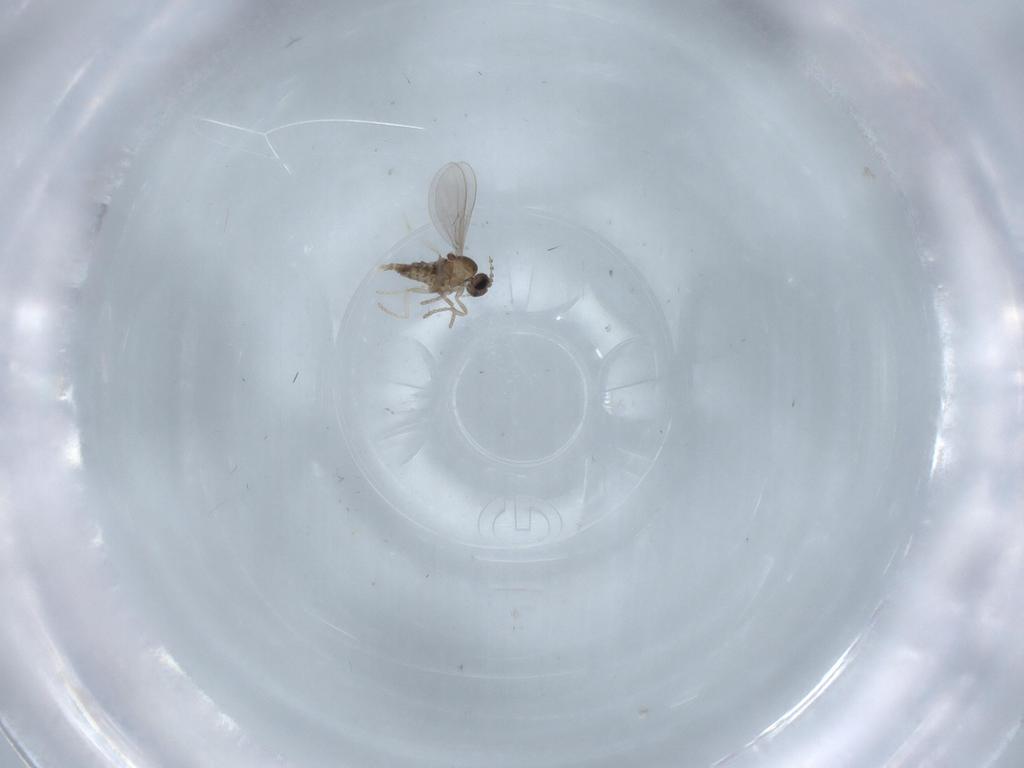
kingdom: Animalia
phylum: Arthropoda
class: Insecta
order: Diptera
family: Cecidomyiidae
